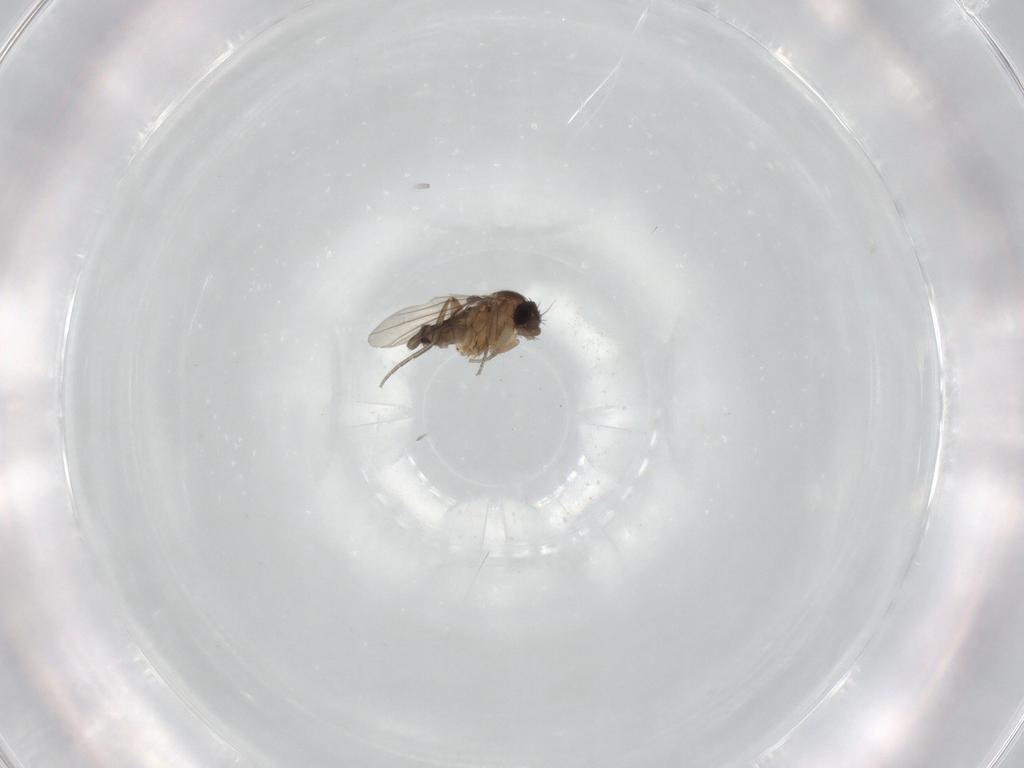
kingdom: Animalia
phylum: Arthropoda
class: Insecta
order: Diptera
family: Phoridae
